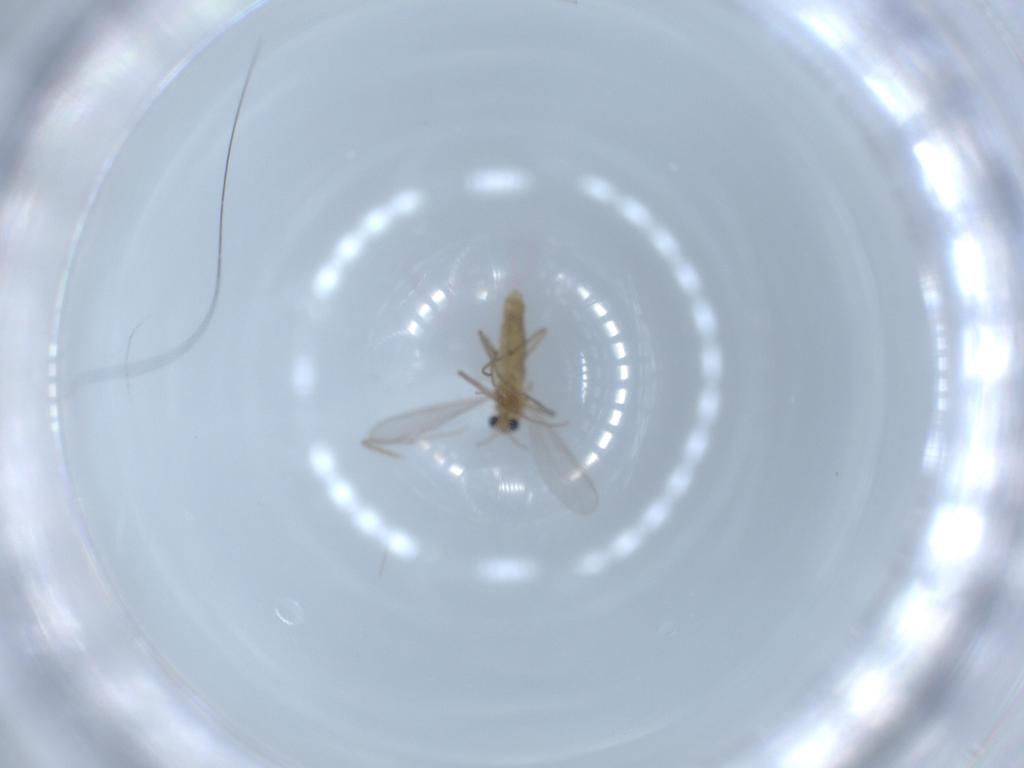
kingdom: Animalia
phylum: Arthropoda
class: Insecta
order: Diptera
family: Chironomidae
